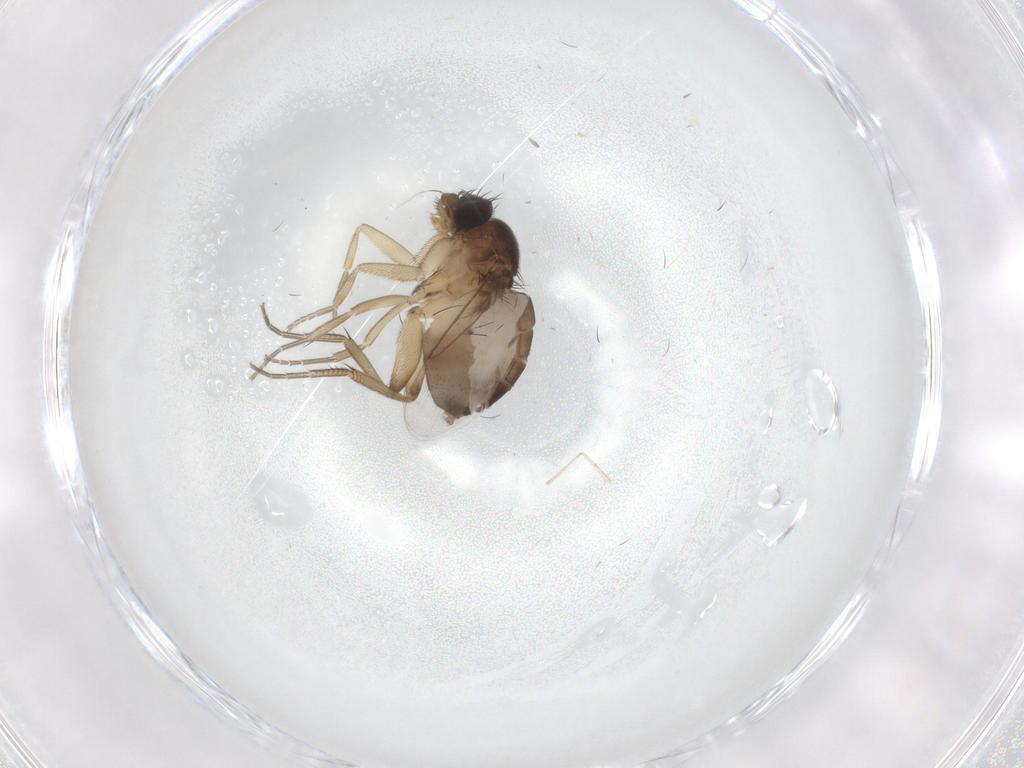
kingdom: Animalia
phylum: Arthropoda
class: Insecta
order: Diptera
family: Phoridae
